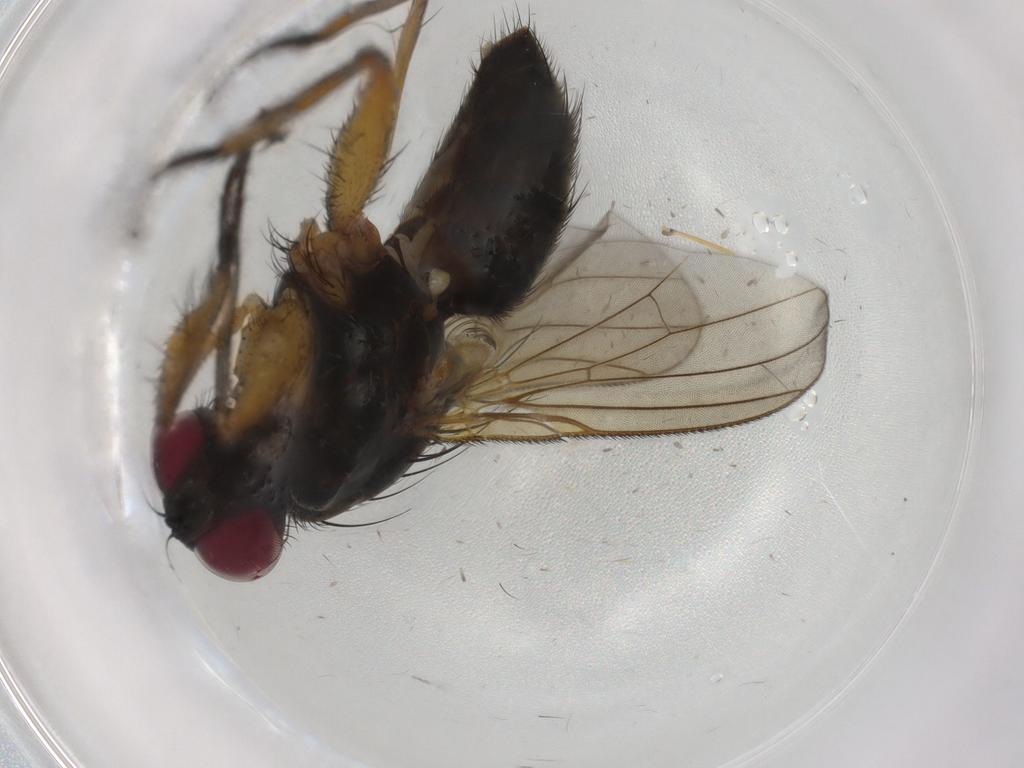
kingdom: Animalia
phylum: Arthropoda
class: Insecta
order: Diptera
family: Muscidae
